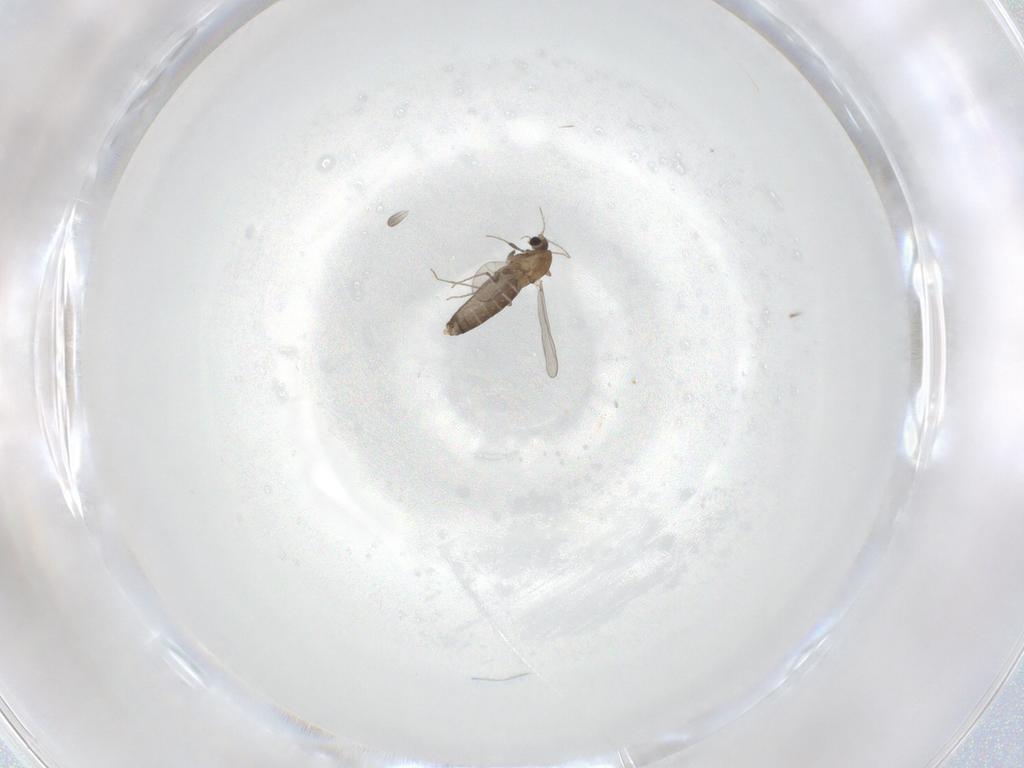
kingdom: Animalia
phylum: Arthropoda
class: Insecta
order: Diptera
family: Chironomidae
